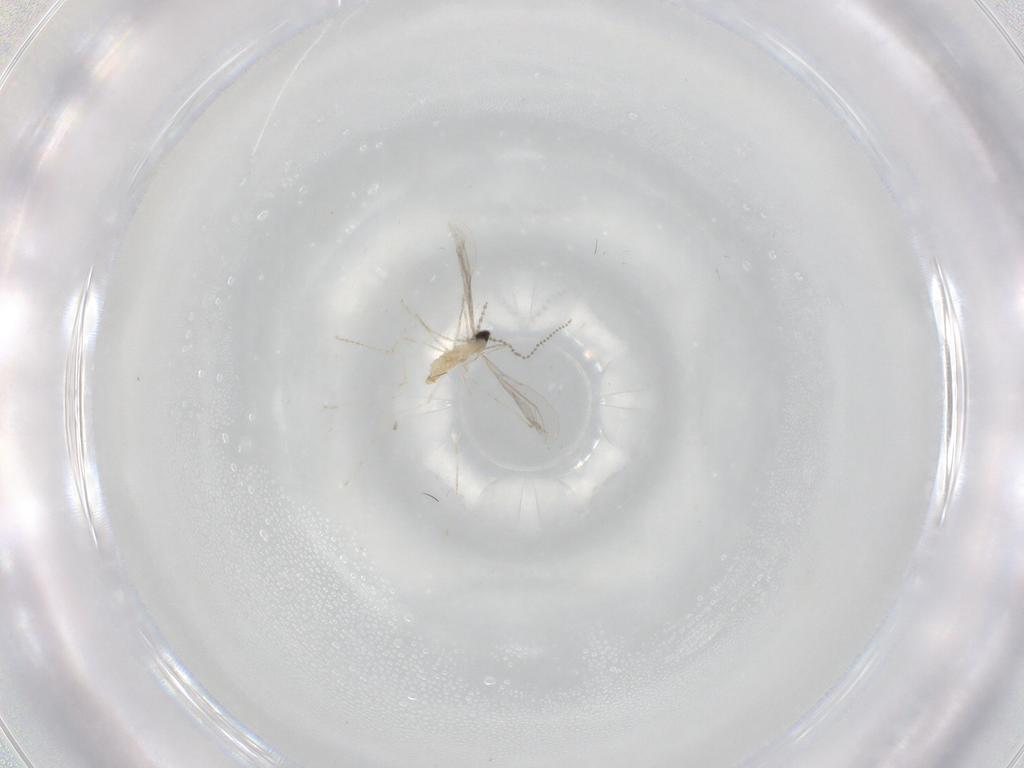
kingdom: Animalia
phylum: Arthropoda
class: Insecta
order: Diptera
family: Cecidomyiidae
